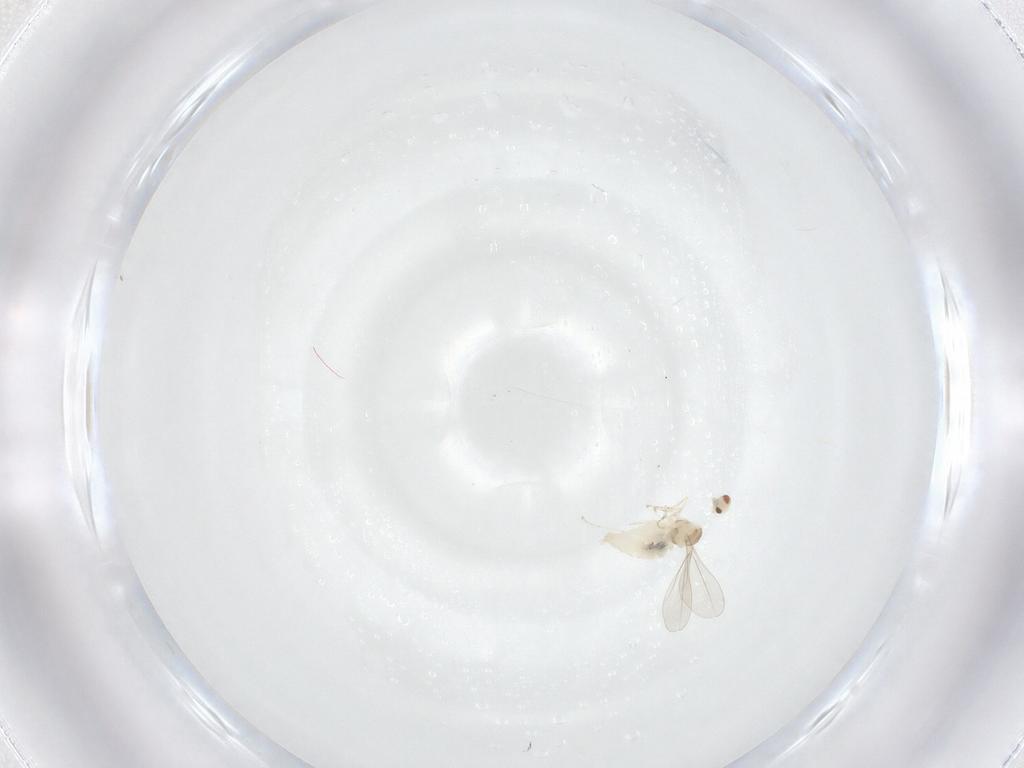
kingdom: Animalia
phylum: Arthropoda
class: Insecta
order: Diptera
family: Cecidomyiidae
